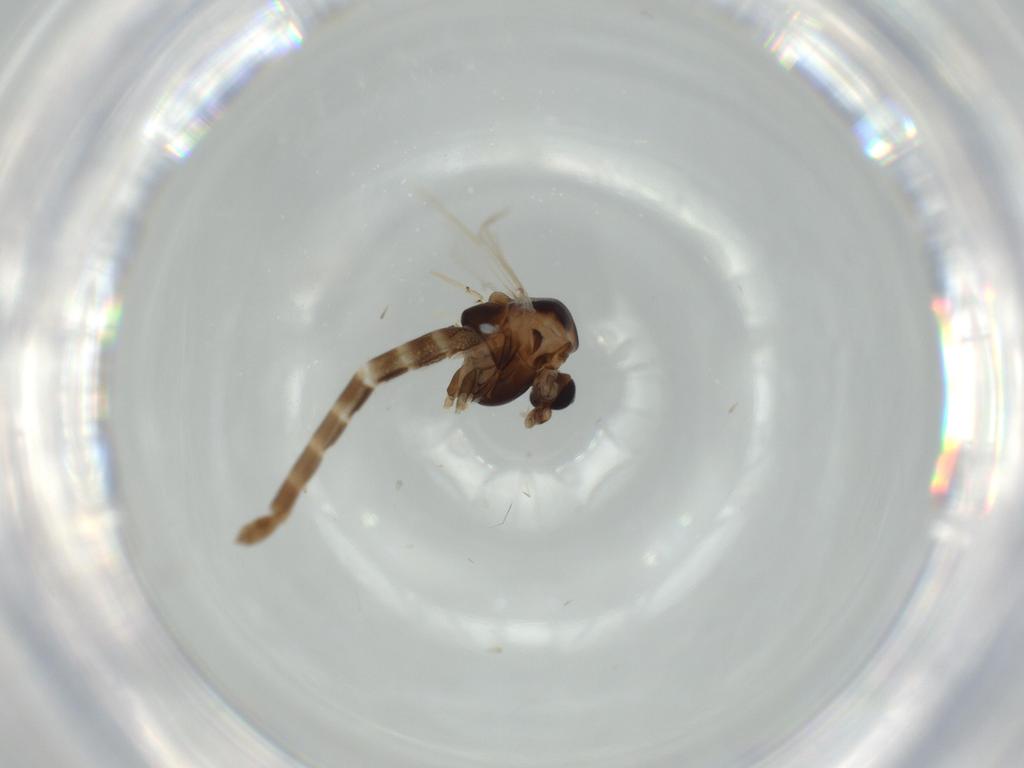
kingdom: Animalia
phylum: Arthropoda
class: Insecta
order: Diptera
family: Chironomidae
